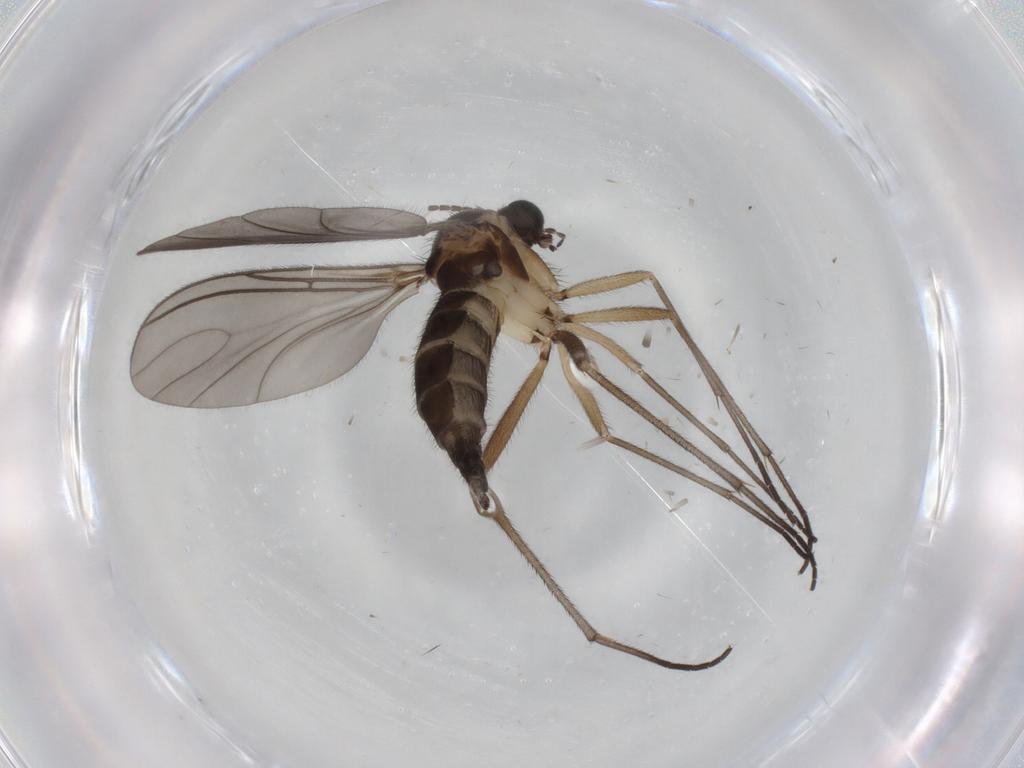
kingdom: Animalia
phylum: Arthropoda
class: Insecta
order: Diptera
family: Sciaridae
